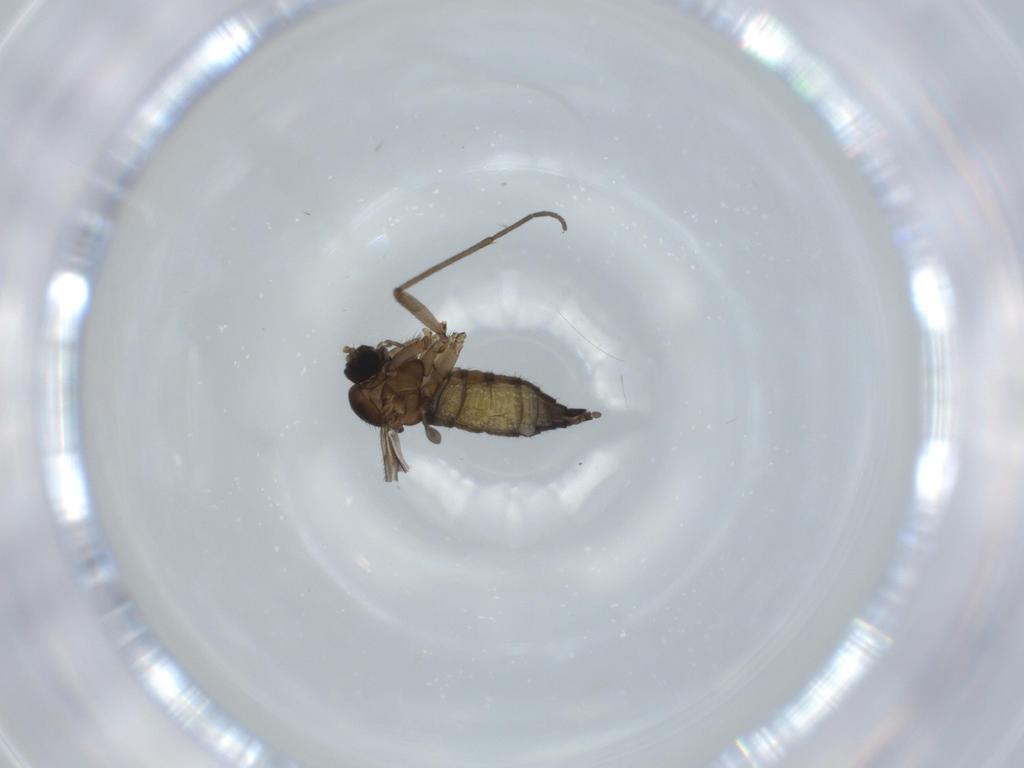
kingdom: Animalia
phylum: Arthropoda
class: Insecta
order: Diptera
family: Sciaridae
